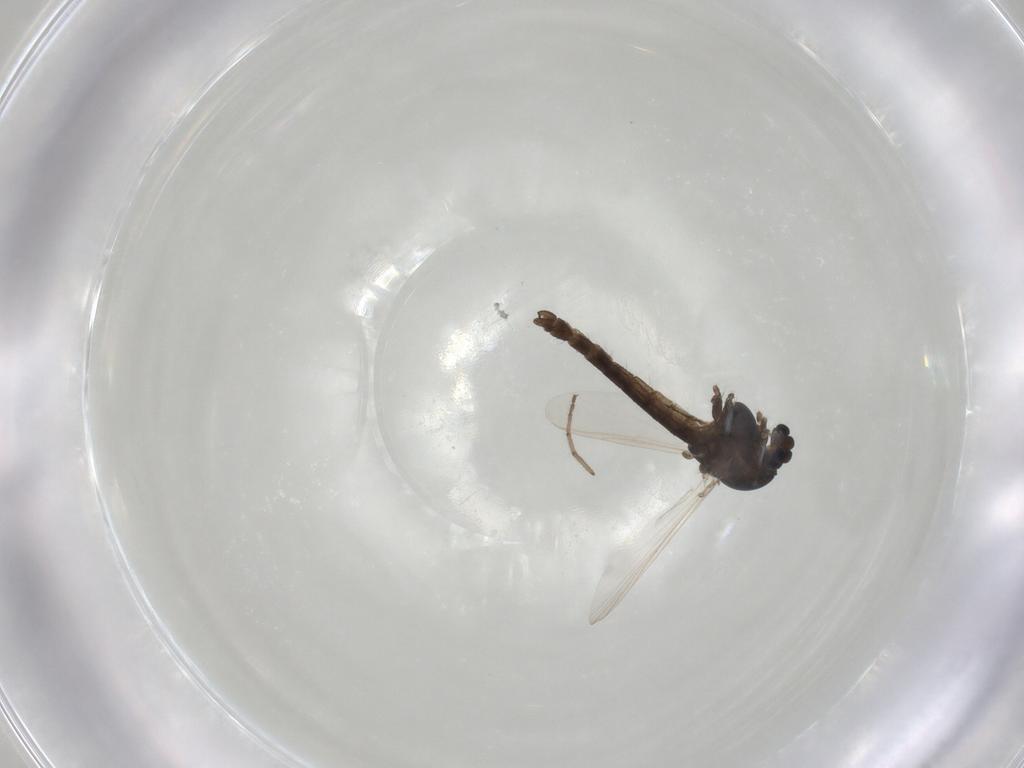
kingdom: Animalia
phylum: Arthropoda
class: Insecta
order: Diptera
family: Chironomidae
